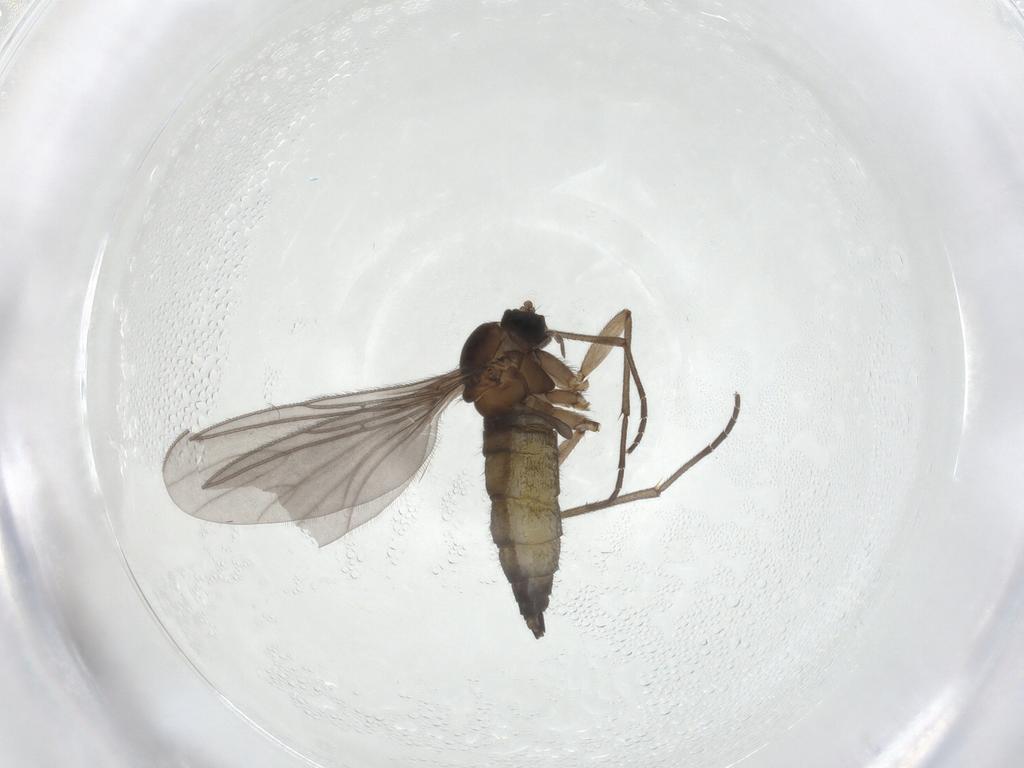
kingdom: Animalia
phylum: Arthropoda
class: Insecta
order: Diptera
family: Sciaridae
